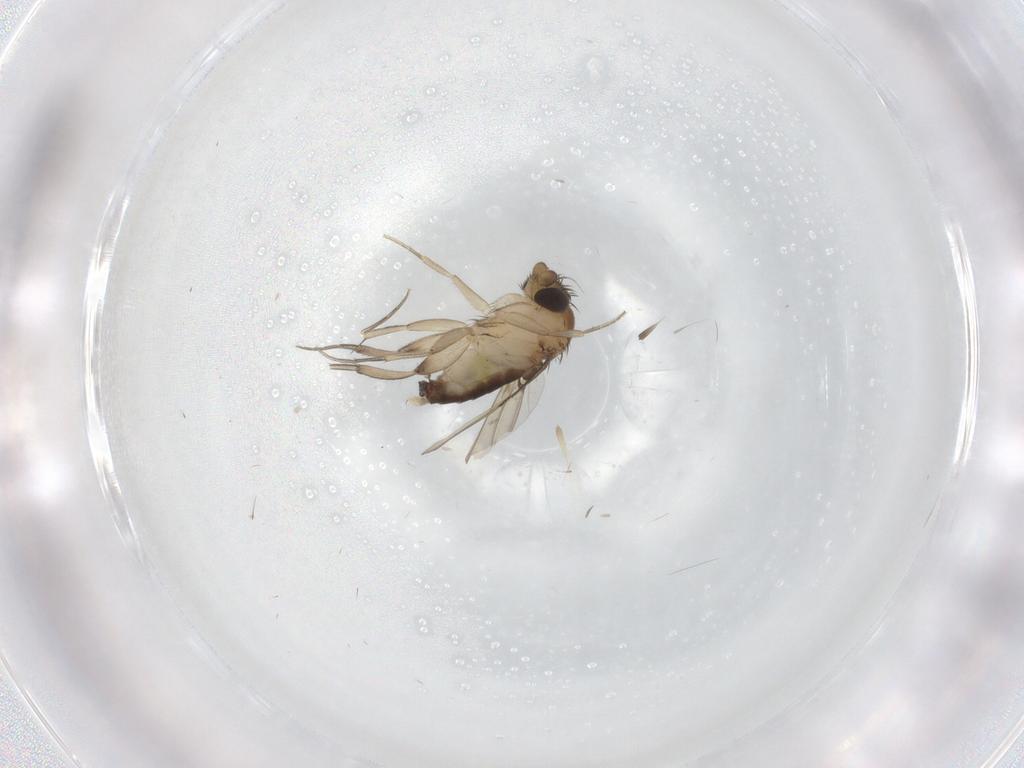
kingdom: Animalia
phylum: Arthropoda
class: Insecta
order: Diptera
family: Phoridae
